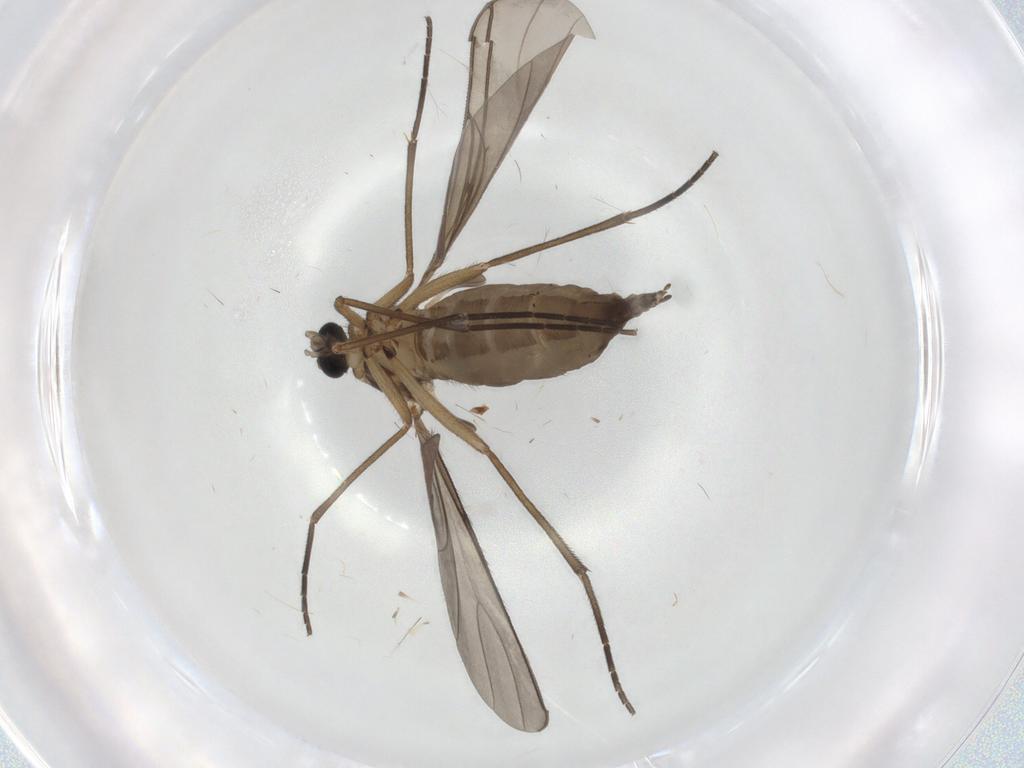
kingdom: Animalia
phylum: Arthropoda
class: Insecta
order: Diptera
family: Sciaridae
